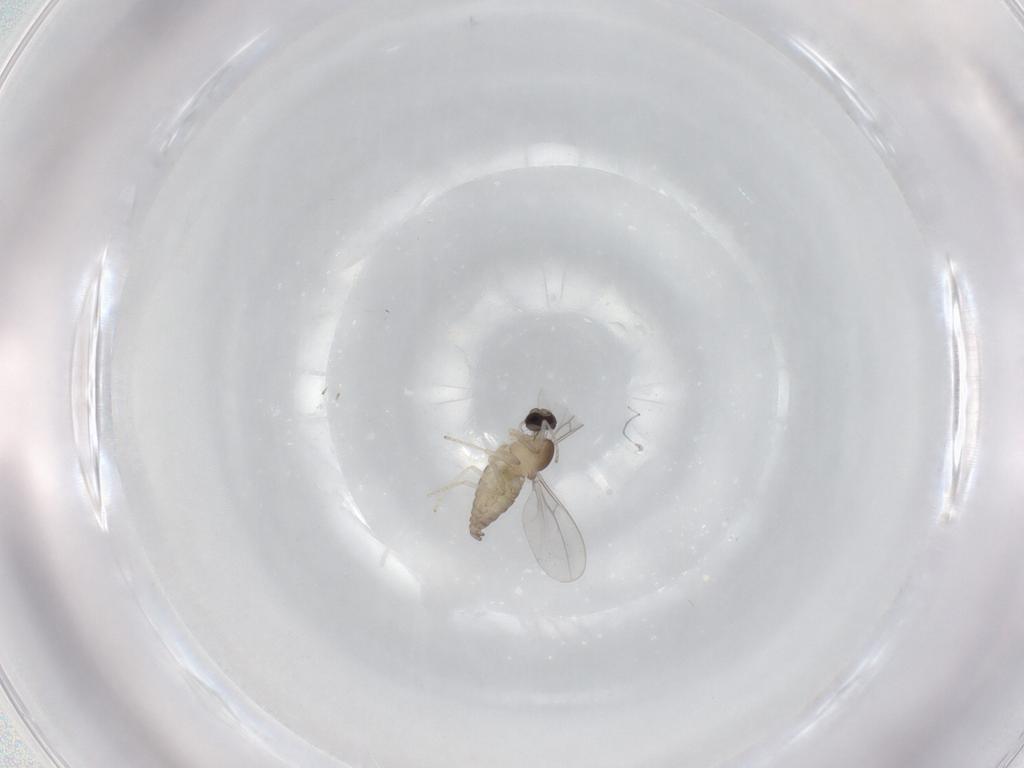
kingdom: Animalia
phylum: Arthropoda
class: Insecta
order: Diptera
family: Cecidomyiidae
